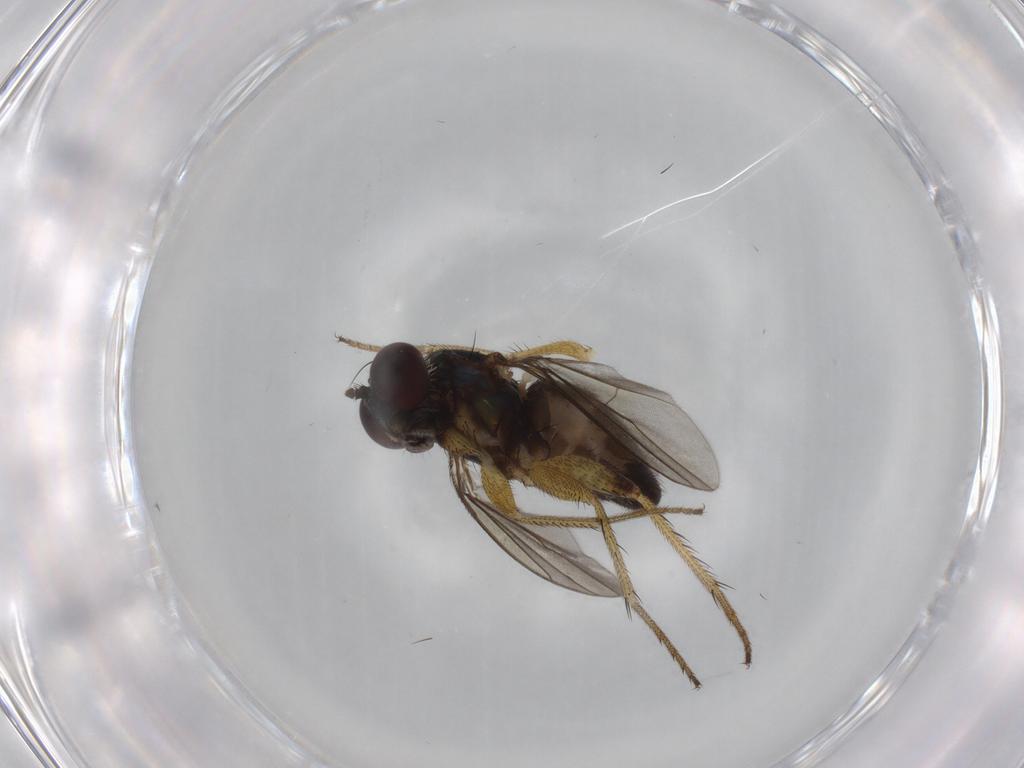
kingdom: Animalia
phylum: Arthropoda
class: Insecta
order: Diptera
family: Dolichopodidae
